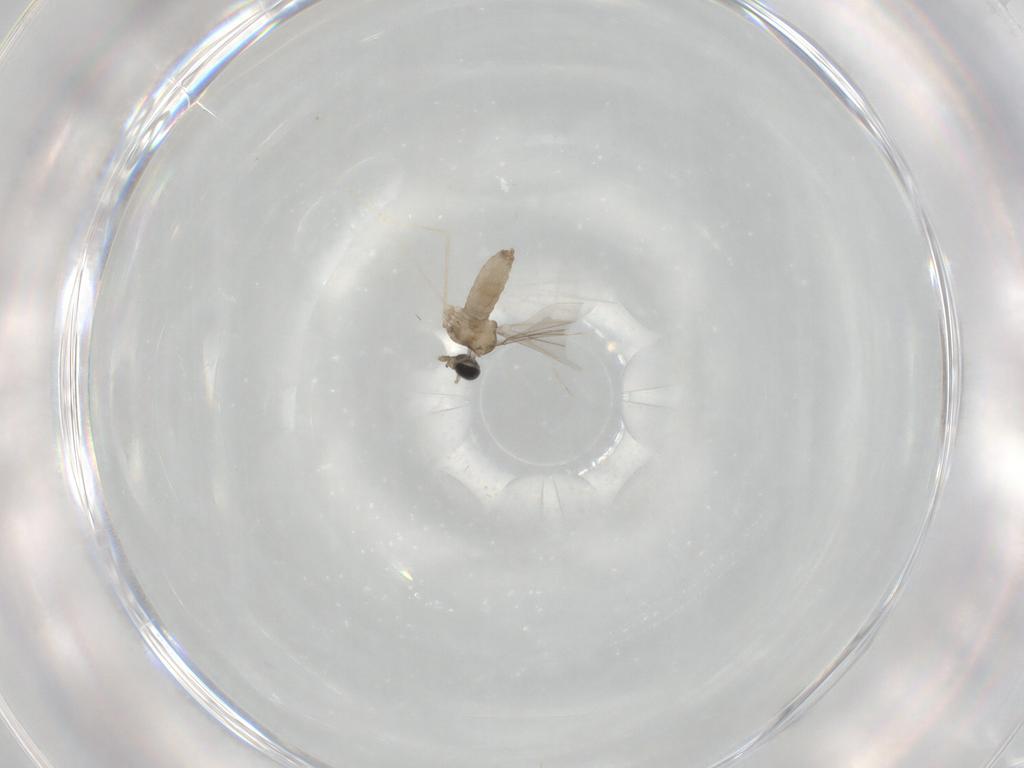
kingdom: Animalia
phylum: Arthropoda
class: Insecta
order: Diptera
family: Cecidomyiidae
